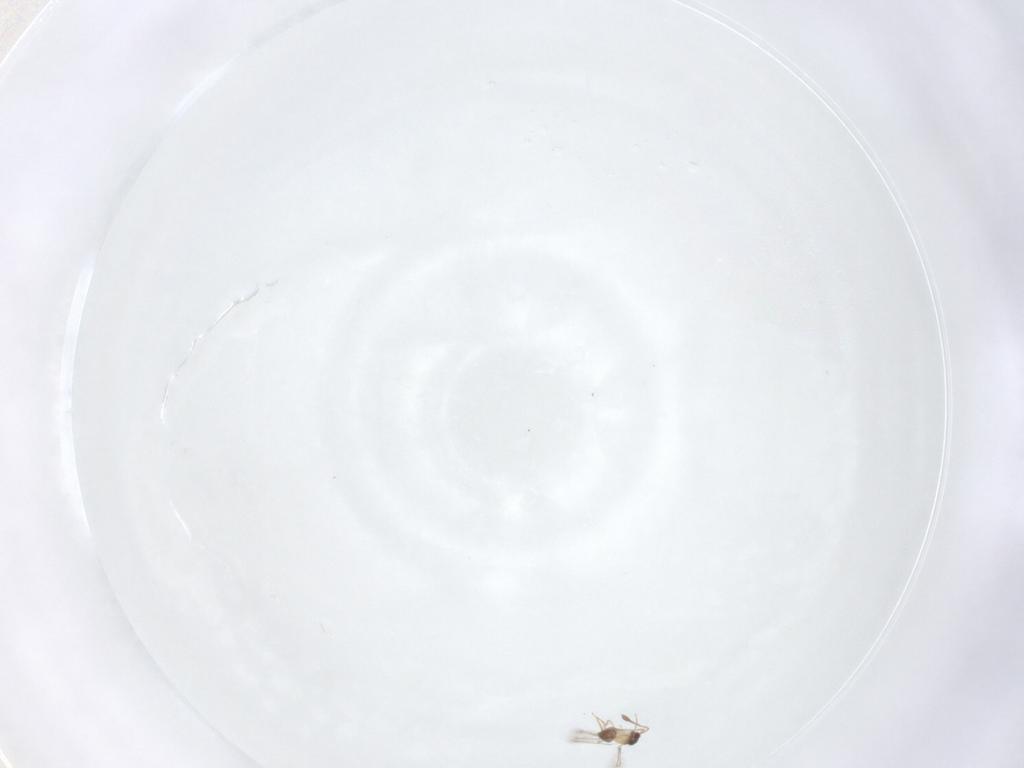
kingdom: Animalia
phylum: Arthropoda
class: Insecta
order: Hymenoptera
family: Mymaridae
